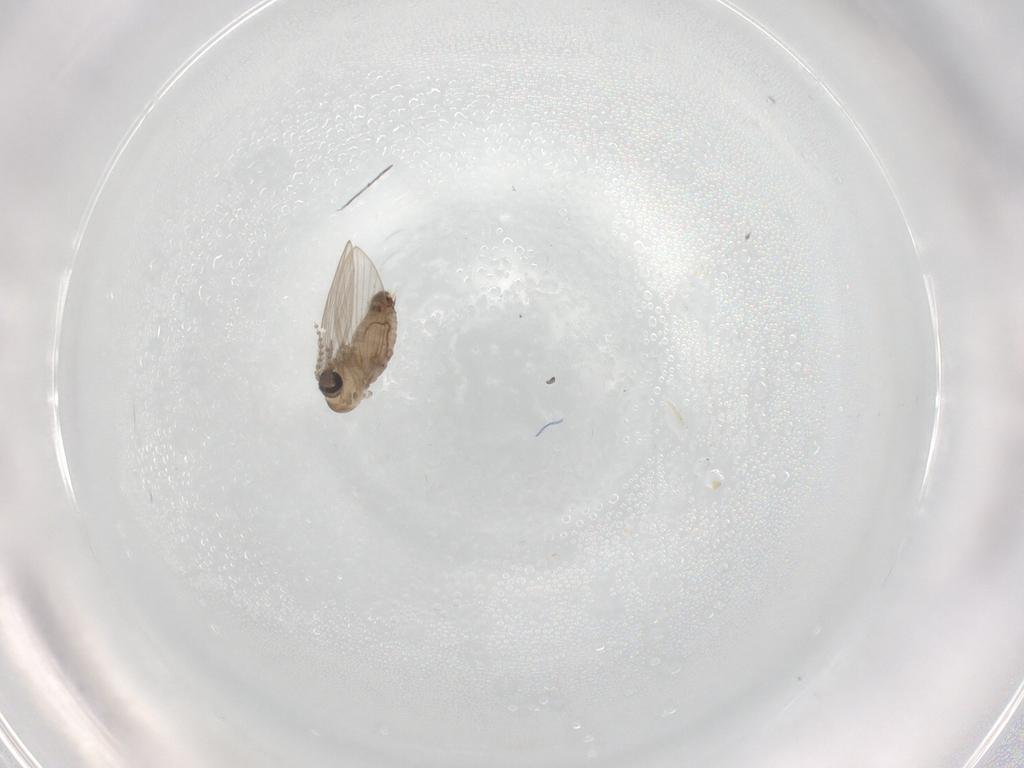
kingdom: Animalia
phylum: Arthropoda
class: Insecta
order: Diptera
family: Psychodidae
